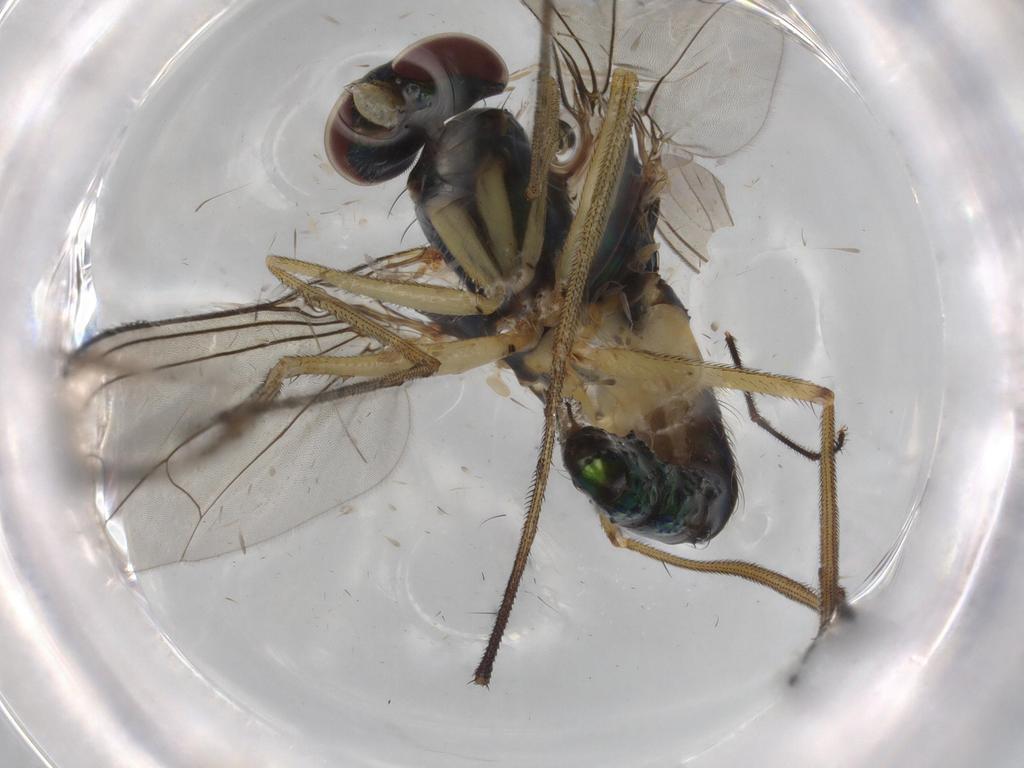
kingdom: Animalia
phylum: Arthropoda
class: Insecta
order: Diptera
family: Dolichopodidae
